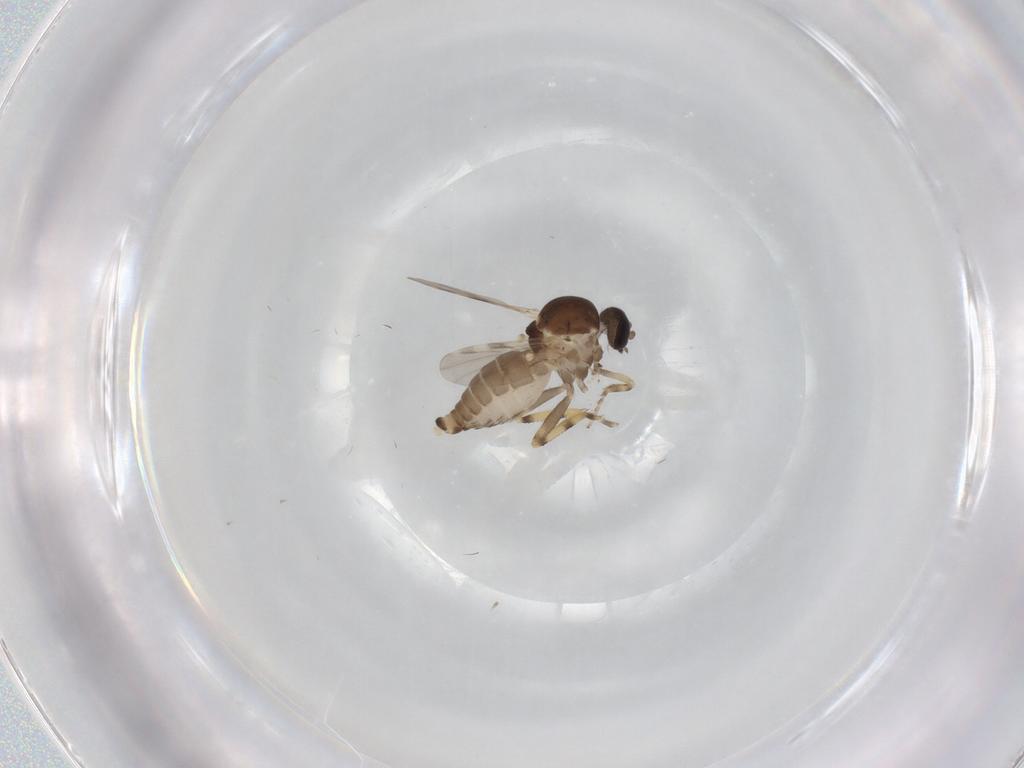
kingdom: Animalia
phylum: Arthropoda
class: Insecta
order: Diptera
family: Ceratopogonidae
